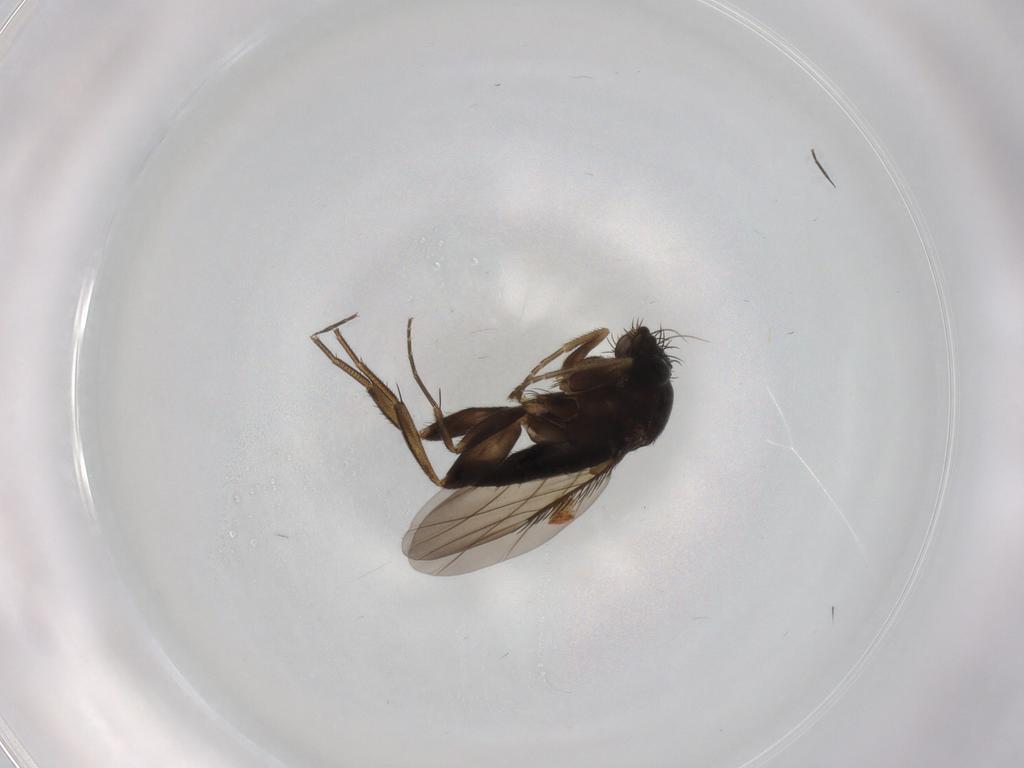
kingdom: Animalia
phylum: Arthropoda
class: Insecta
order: Diptera
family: Phoridae
